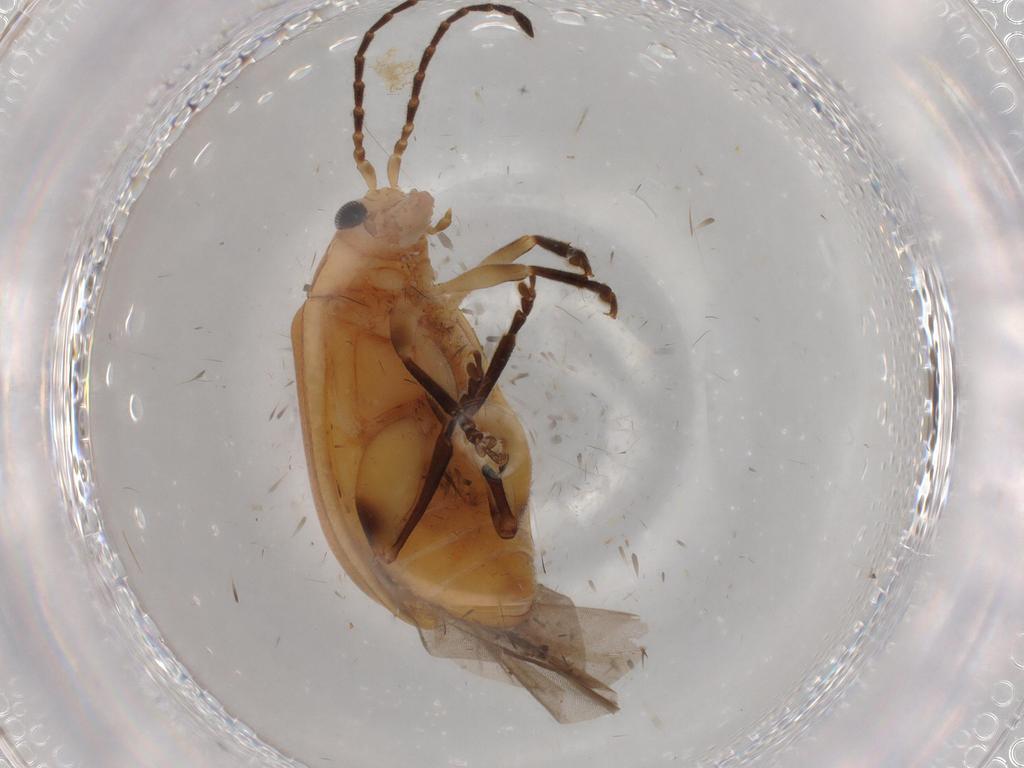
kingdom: Animalia
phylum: Arthropoda
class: Insecta
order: Coleoptera
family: Chrysomelidae
